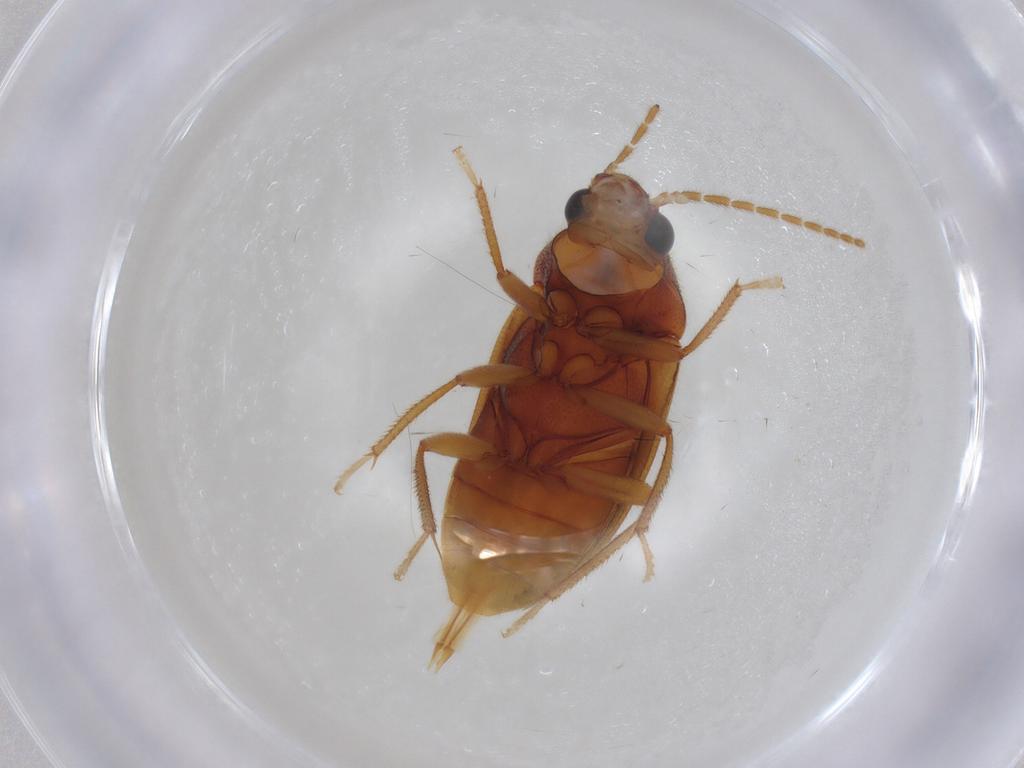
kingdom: Animalia
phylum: Arthropoda
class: Insecta
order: Coleoptera
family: Ptilodactylidae
